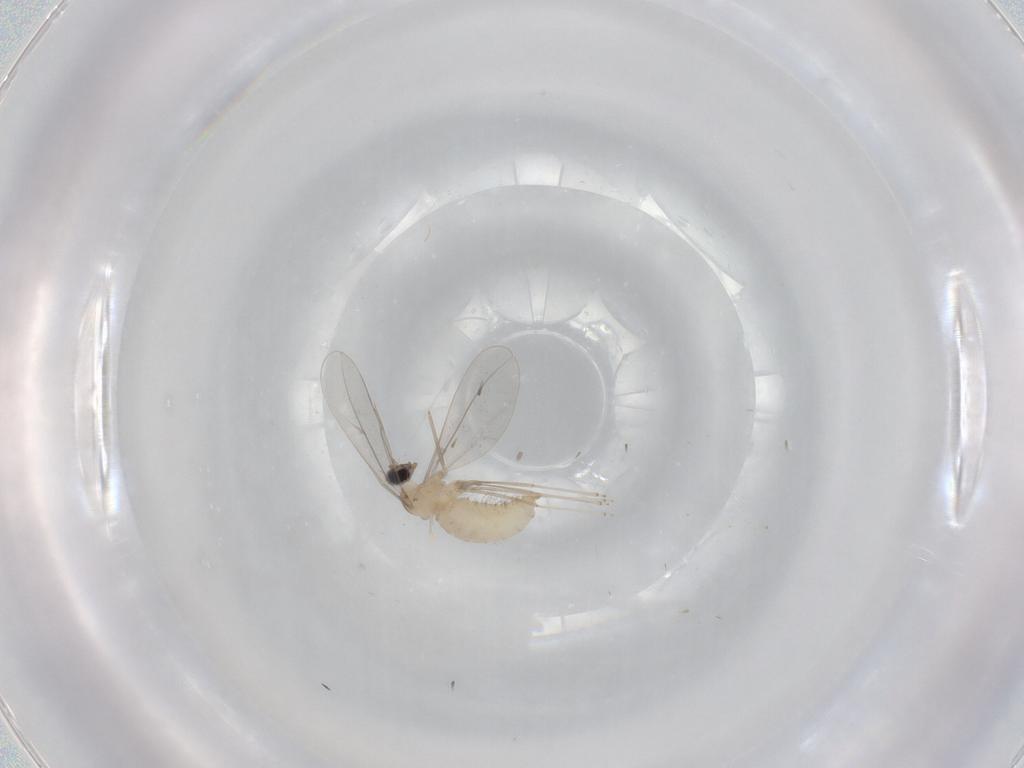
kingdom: Animalia
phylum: Arthropoda
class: Insecta
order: Diptera
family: Cecidomyiidae
